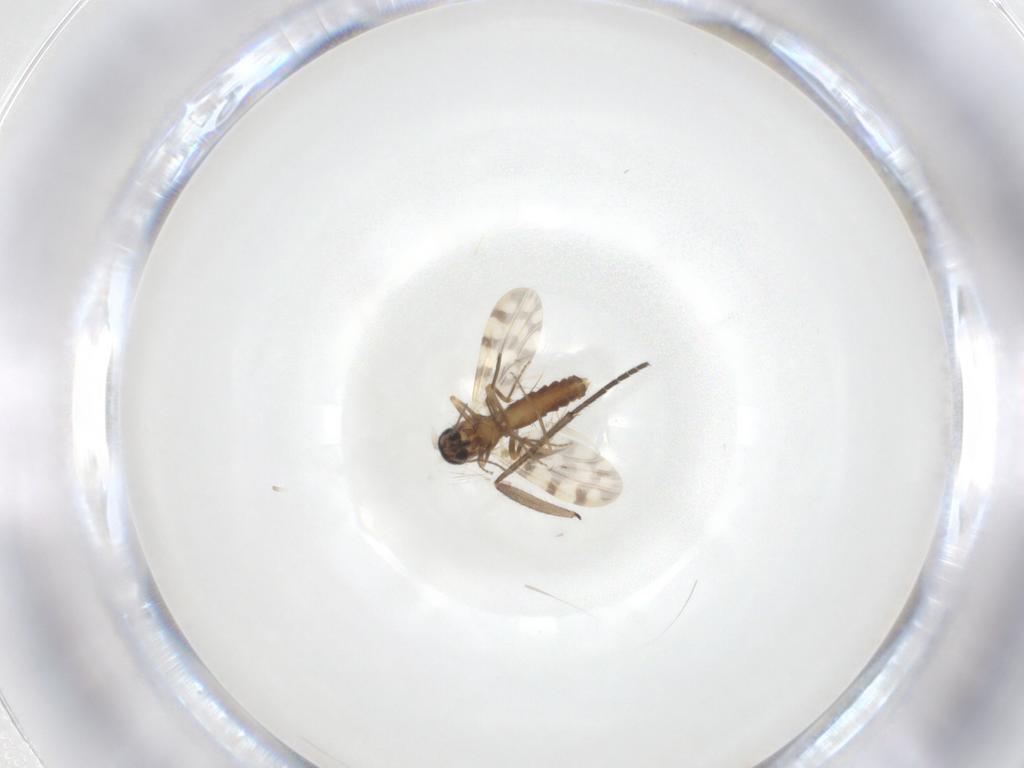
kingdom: Animalia
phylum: Arthropoda
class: Insecta
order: Diptera
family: Ceratopogonidae
